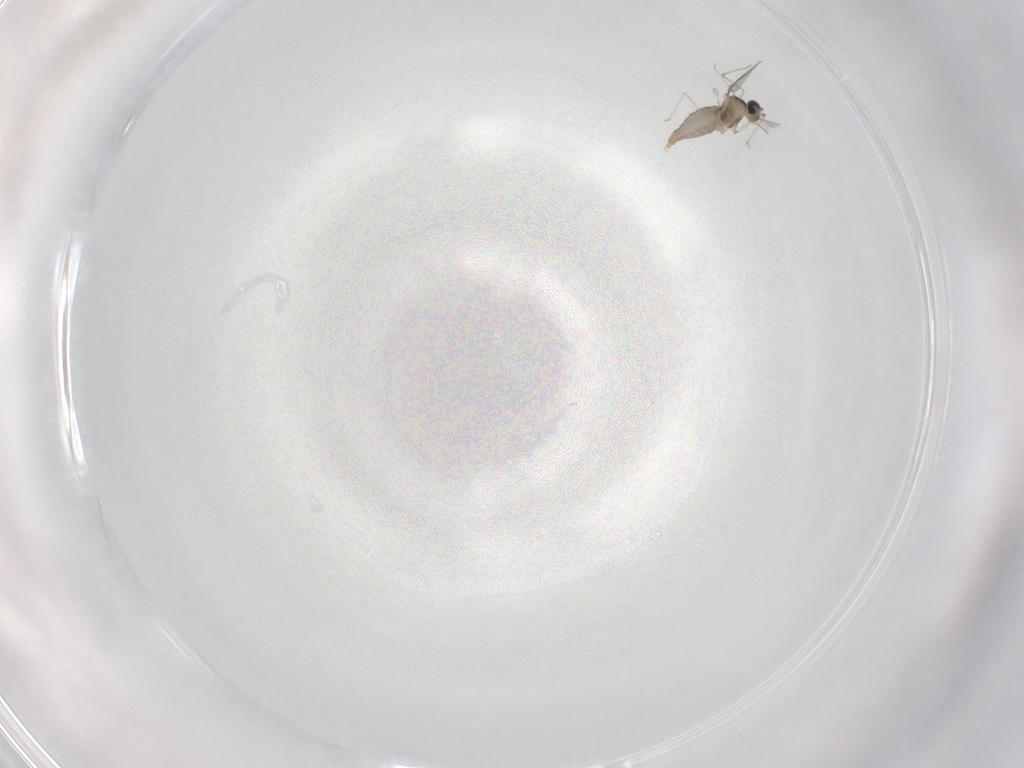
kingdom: Animalia
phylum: Arthropoda
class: Insecta
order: Diptera
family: Cecidomyiidae
